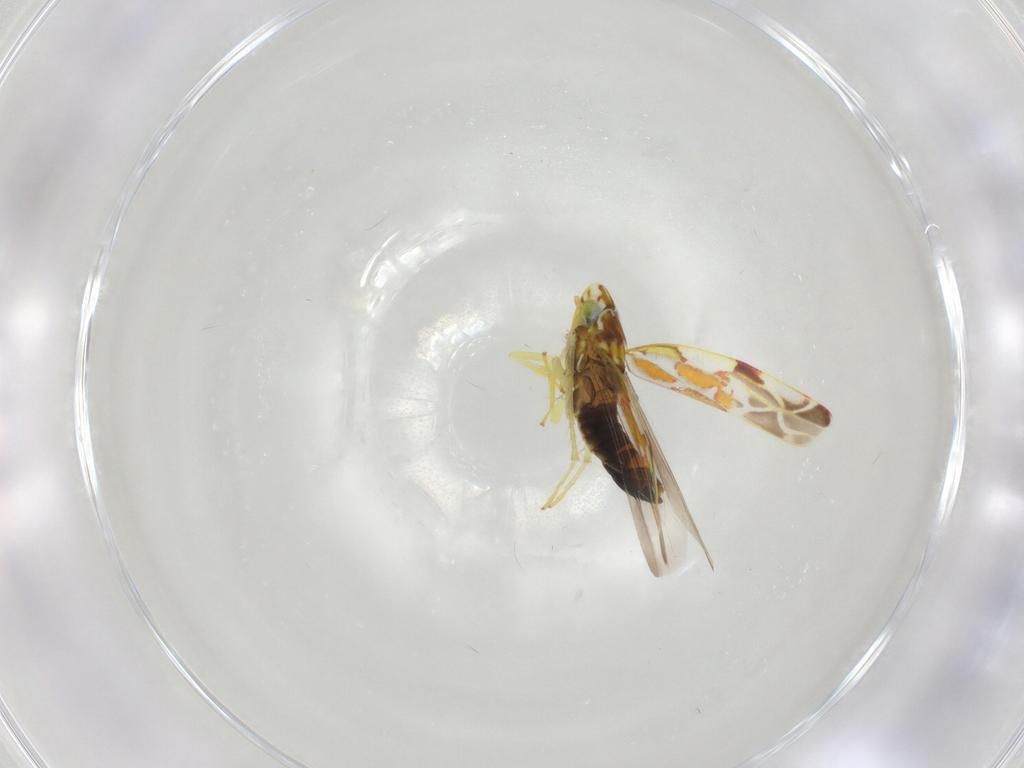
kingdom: Animalia
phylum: Arthropoda
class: Insecta
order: Hemiptera
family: Cicadellidae
